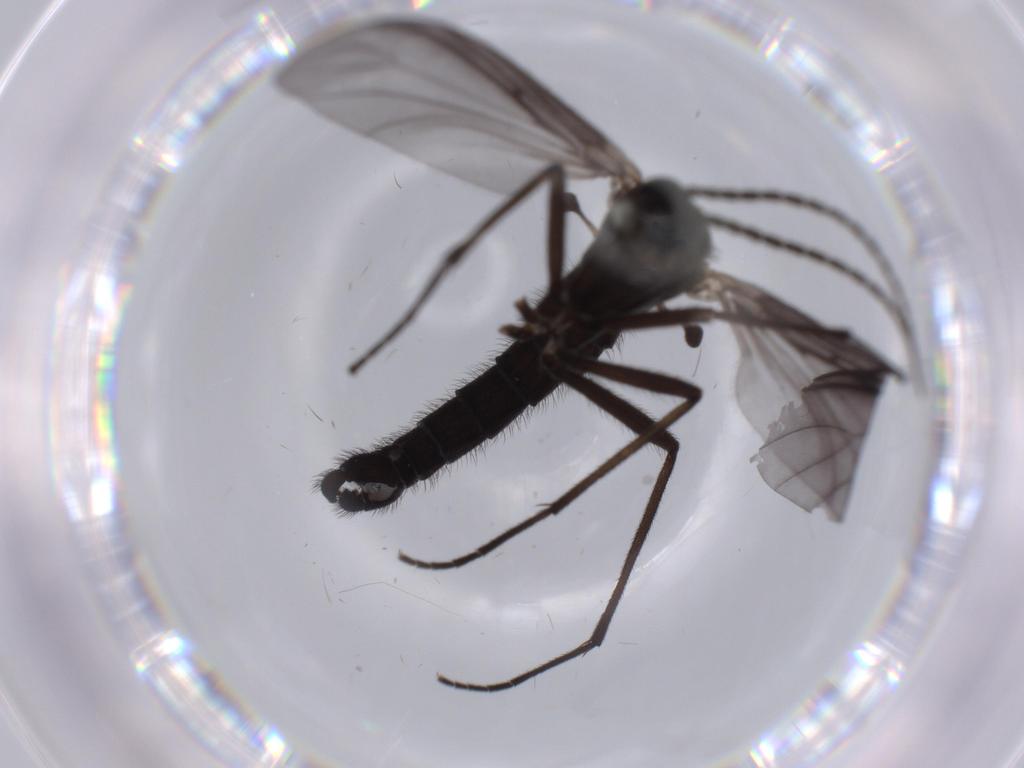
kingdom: Animalia
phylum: Arthropoda
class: Insecta
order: Diptera
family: Ceratopogonidae
